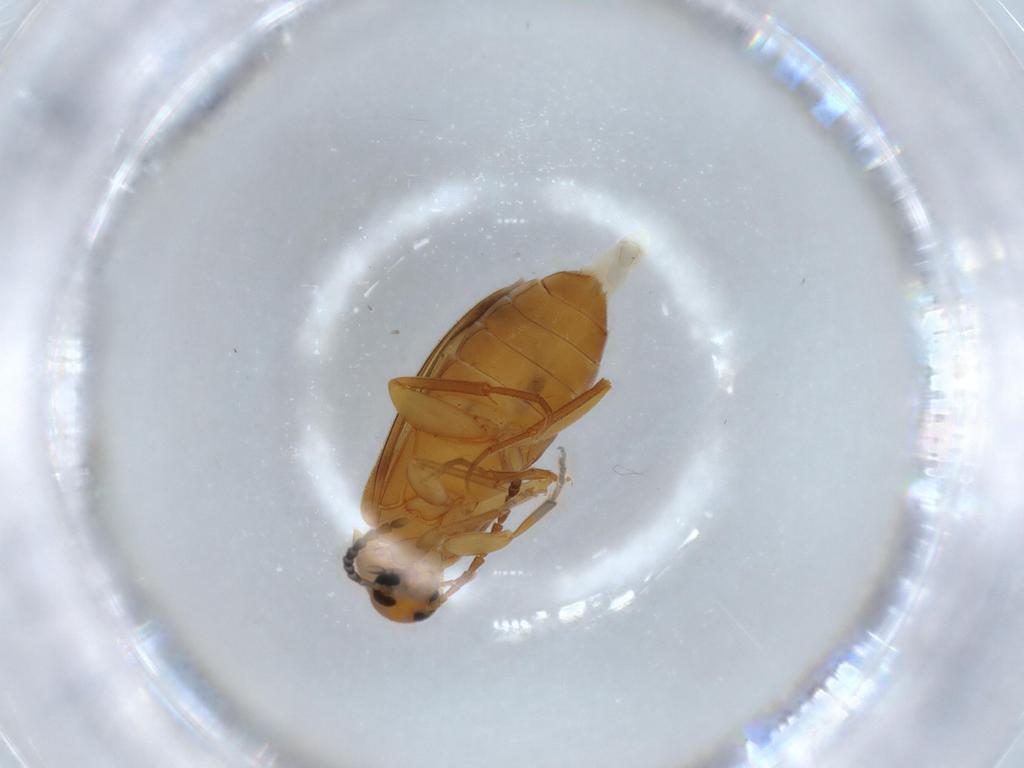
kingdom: Animalia
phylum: Arthropoda
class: Insecta
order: Coleoptera
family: Scraptiidae
